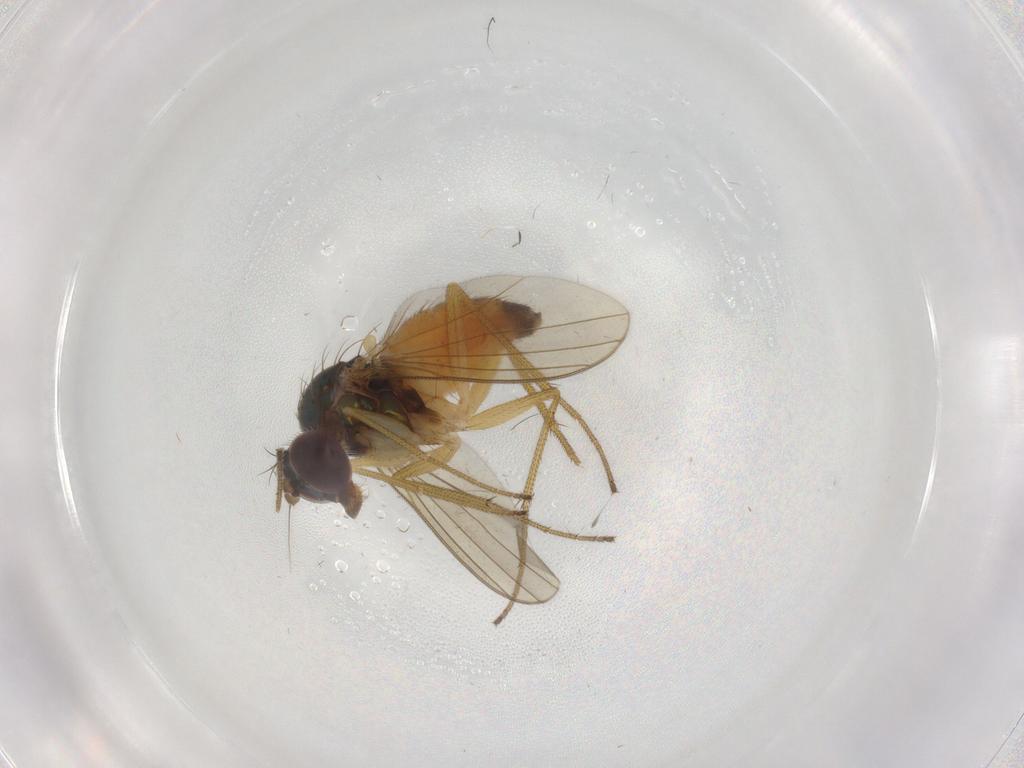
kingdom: Animalia
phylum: Arthropoda
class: Insecta
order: Diptera
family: Dolichopodidae
